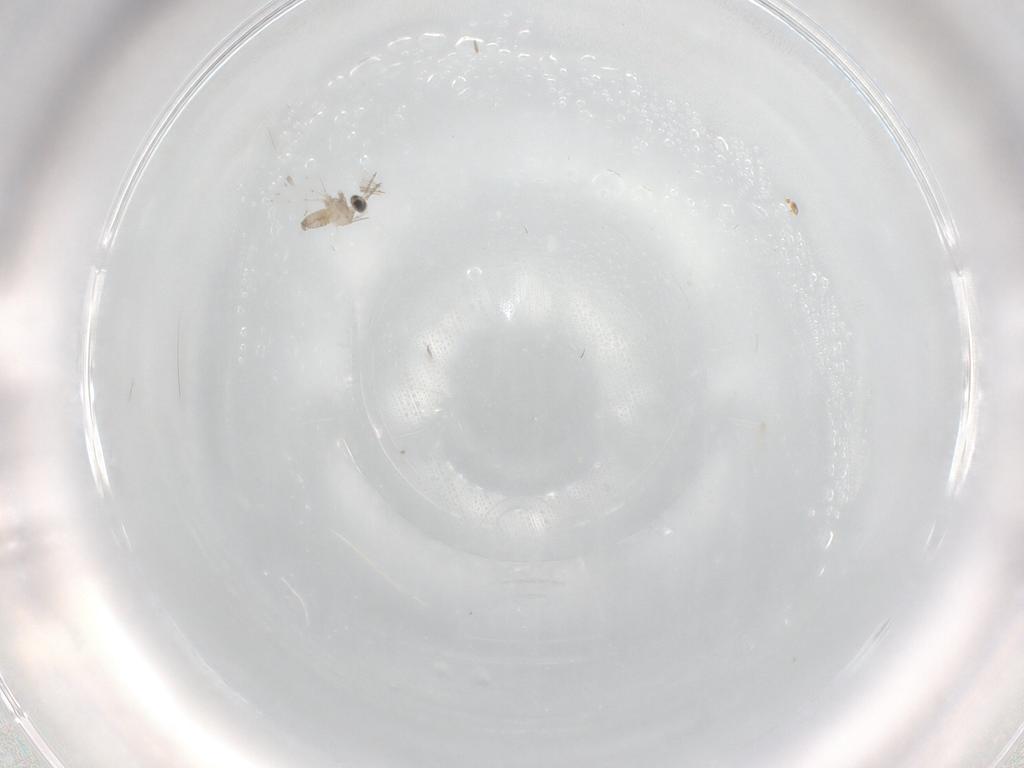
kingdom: Animalia
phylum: Arthropoda
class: Insecta
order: Diptera
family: Cecidomyiidae
